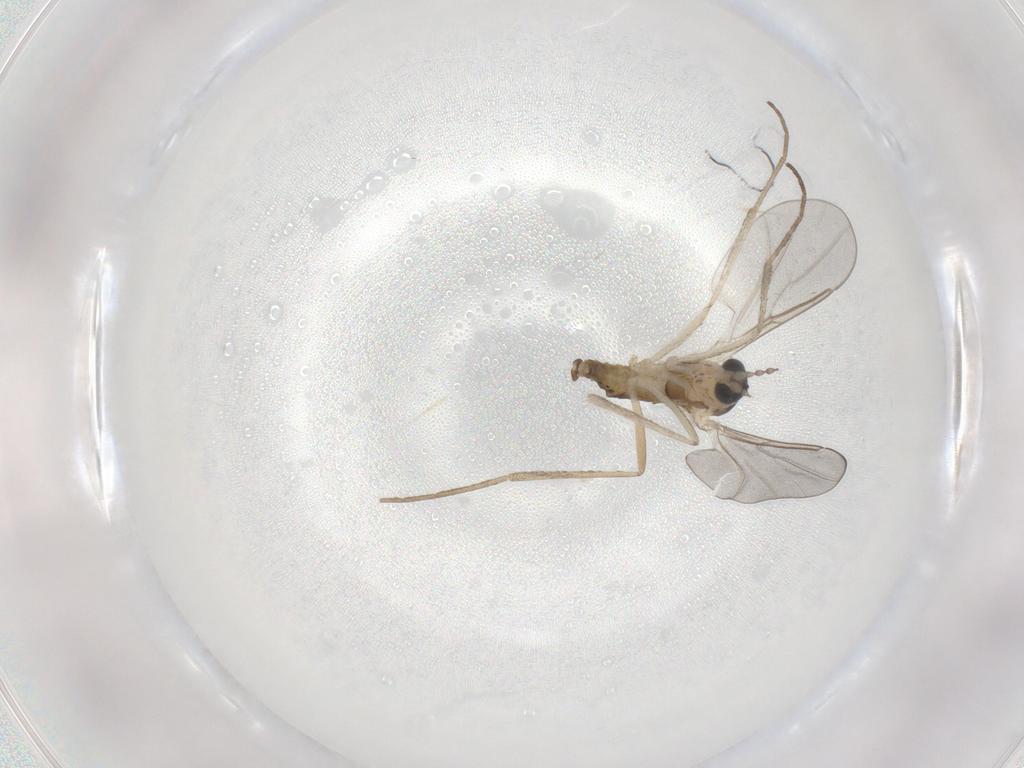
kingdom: Animalia
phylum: Arthropoda
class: Insecta
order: Diptera
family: Cecidomyiidae
